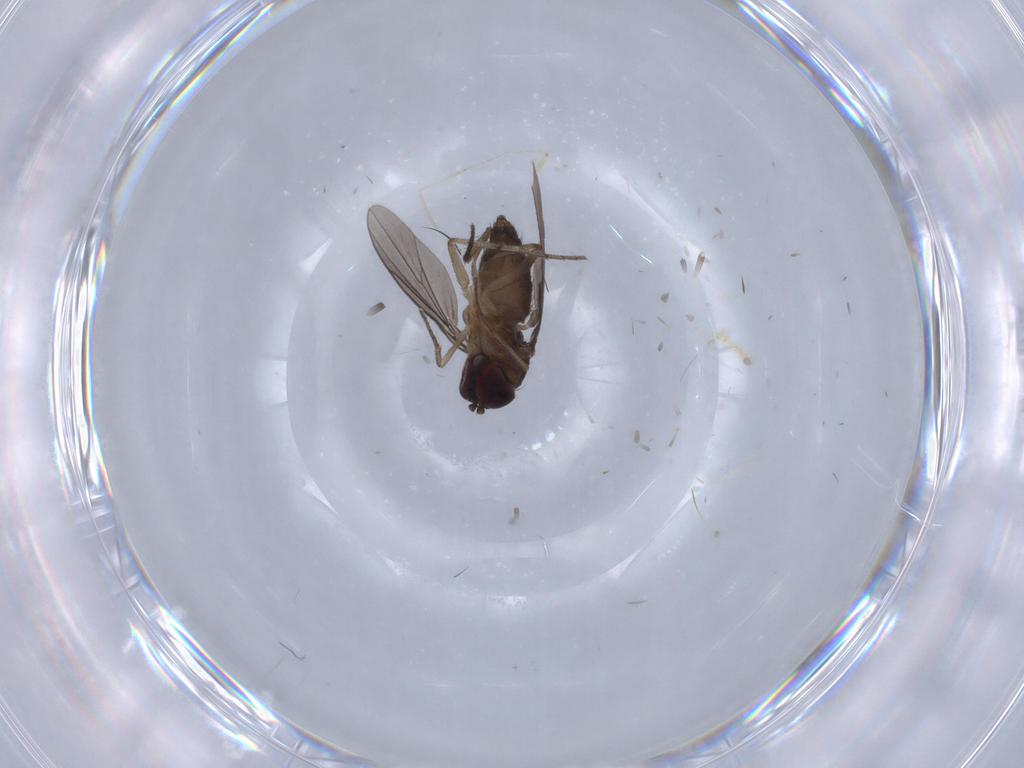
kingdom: Animalia
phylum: Arthropoda
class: Insecta
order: Diptera
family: Dolichopodidae
